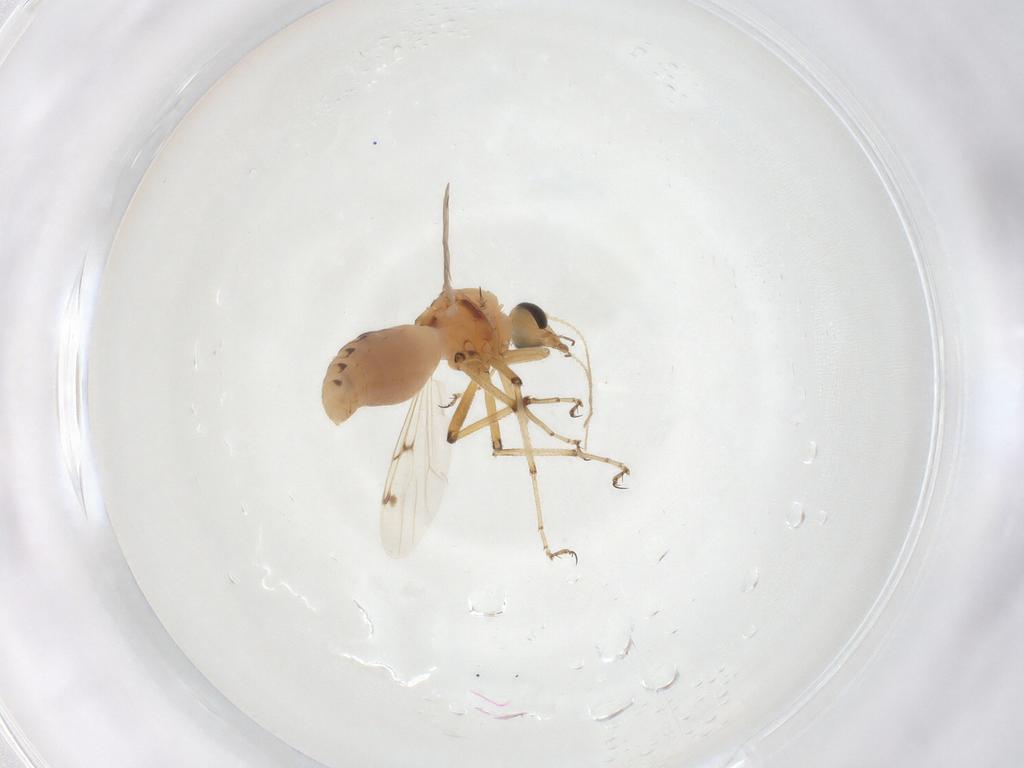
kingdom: Animalia
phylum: Arthropoda
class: Insecta
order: Diptera
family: Ceratopogonidae
